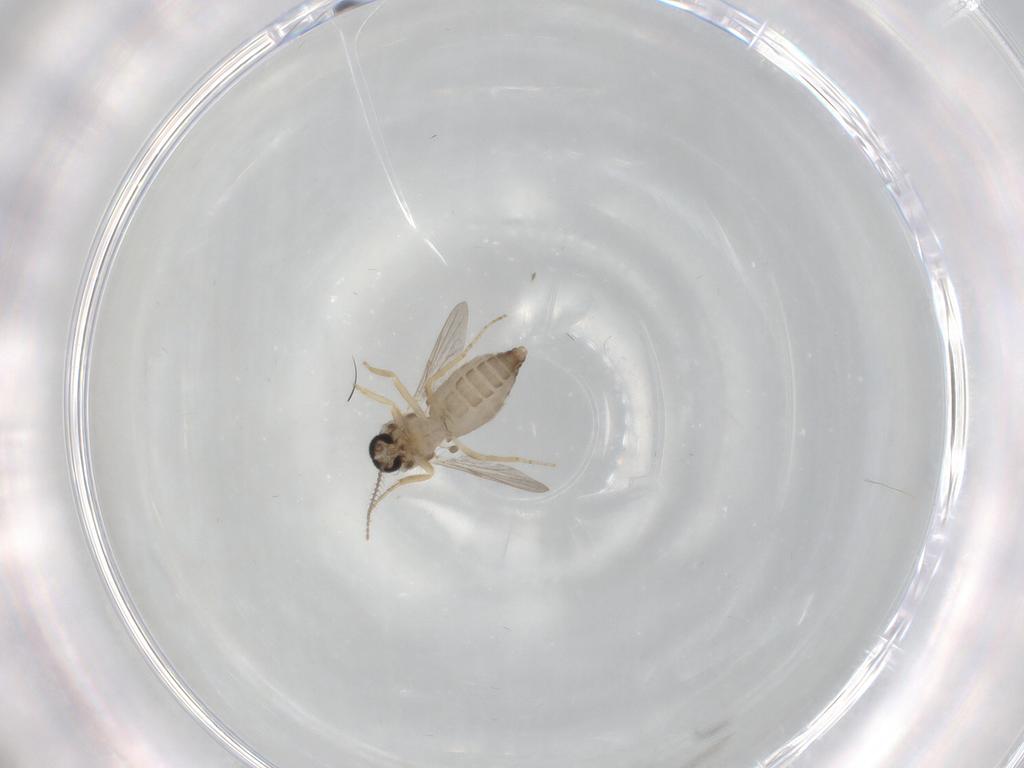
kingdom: Animalia
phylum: Arthropoda
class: Insecta
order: Diptera
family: Ceratopogonidae
